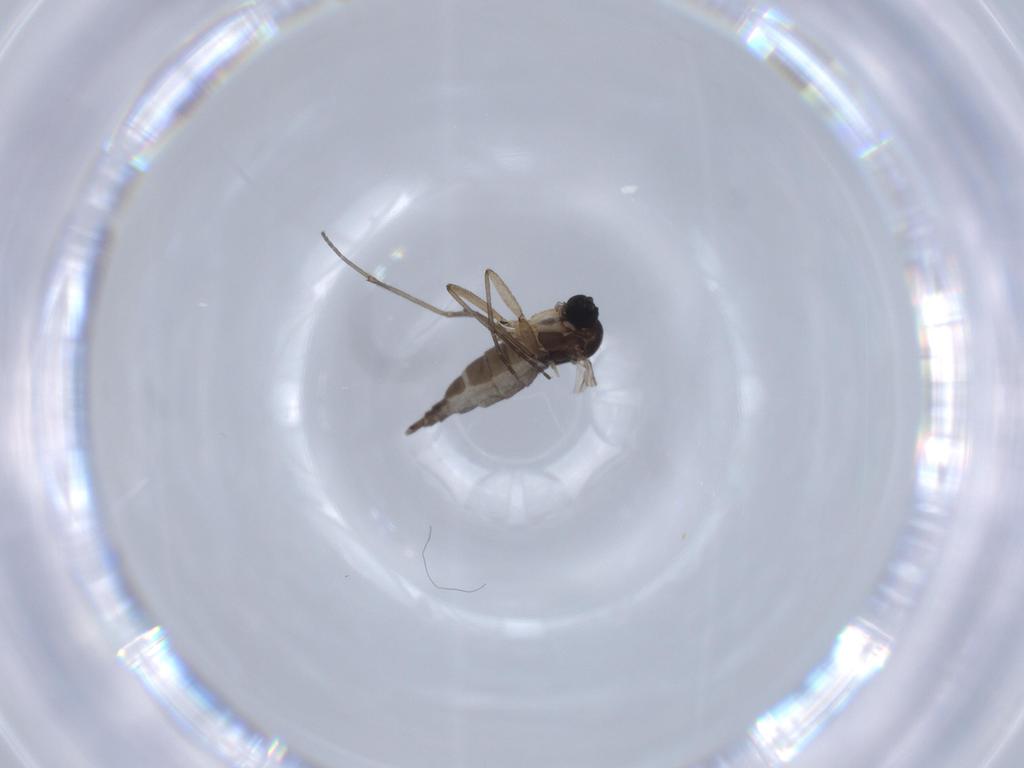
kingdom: Animalia
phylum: Arthropoda
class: Insecta
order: Diptera
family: Sciaridae
